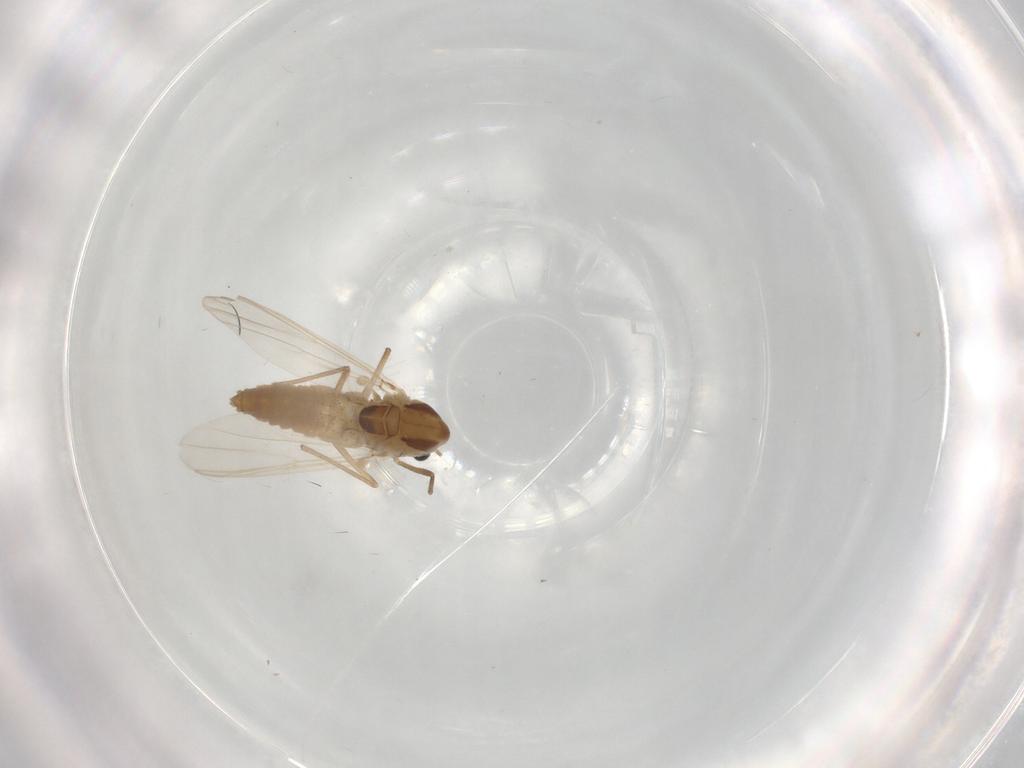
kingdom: Animalia
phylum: Arthropoda
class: Insecta
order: Diptera
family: Chironomidae
